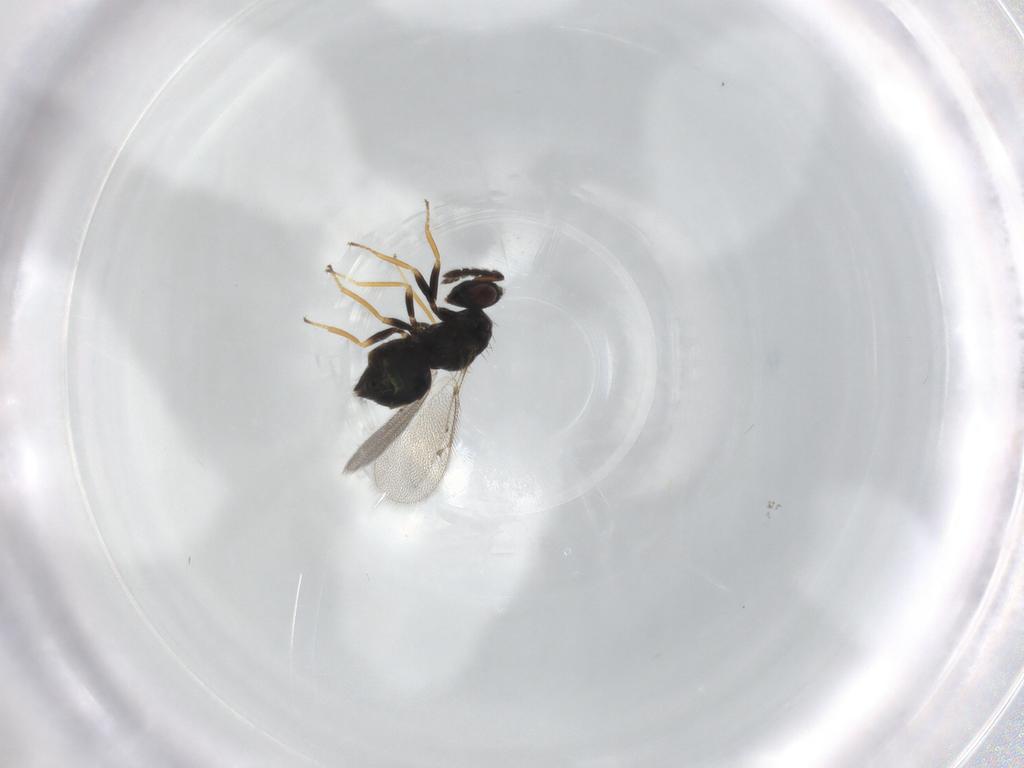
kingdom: Animalia
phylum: Arthropoda
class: Insecta
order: Hymenoptera
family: Eulophidae
